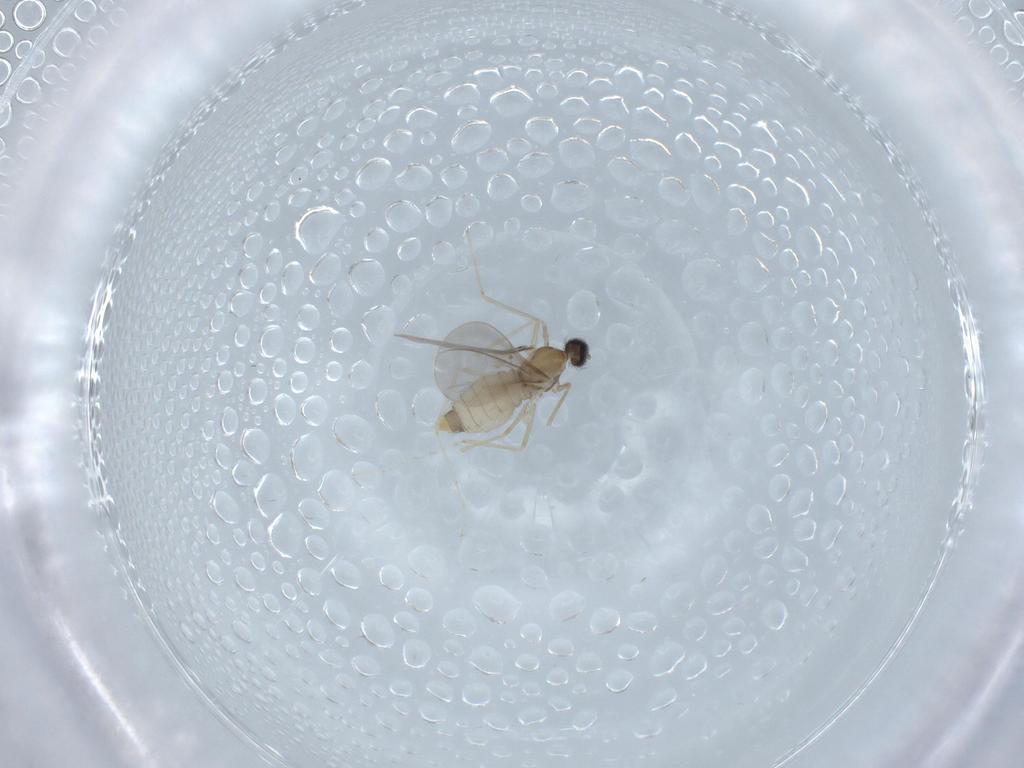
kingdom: Animalia
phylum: Arthropoda
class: Insecta
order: Diptera
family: Cecidomyiidae
